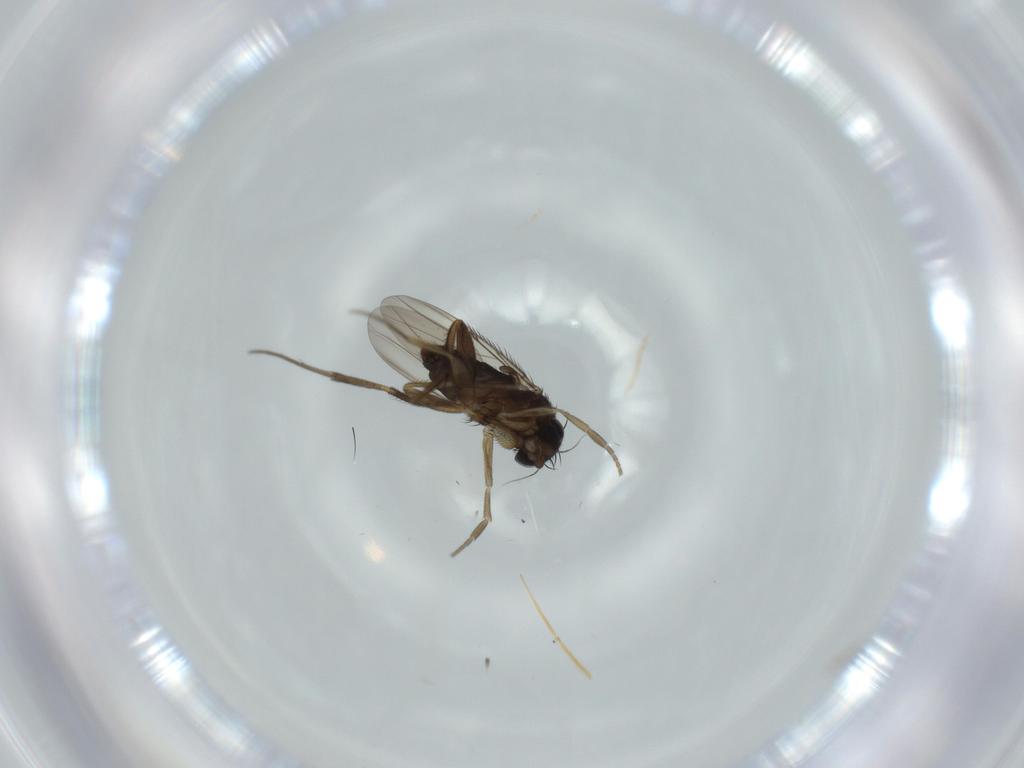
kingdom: Animalia
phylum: Arthropoda
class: Insecta
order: Diptera
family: Phoridae
